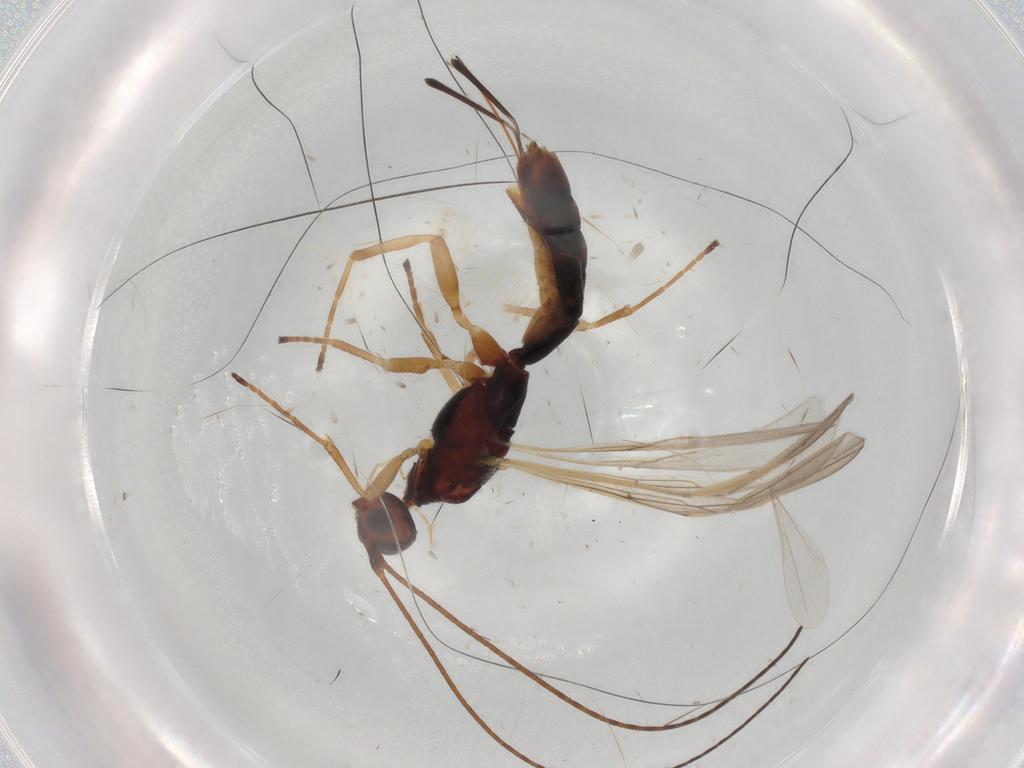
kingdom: Animalia
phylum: Arthropoda
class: Insecta
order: Hymenoptera
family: Braconidae
